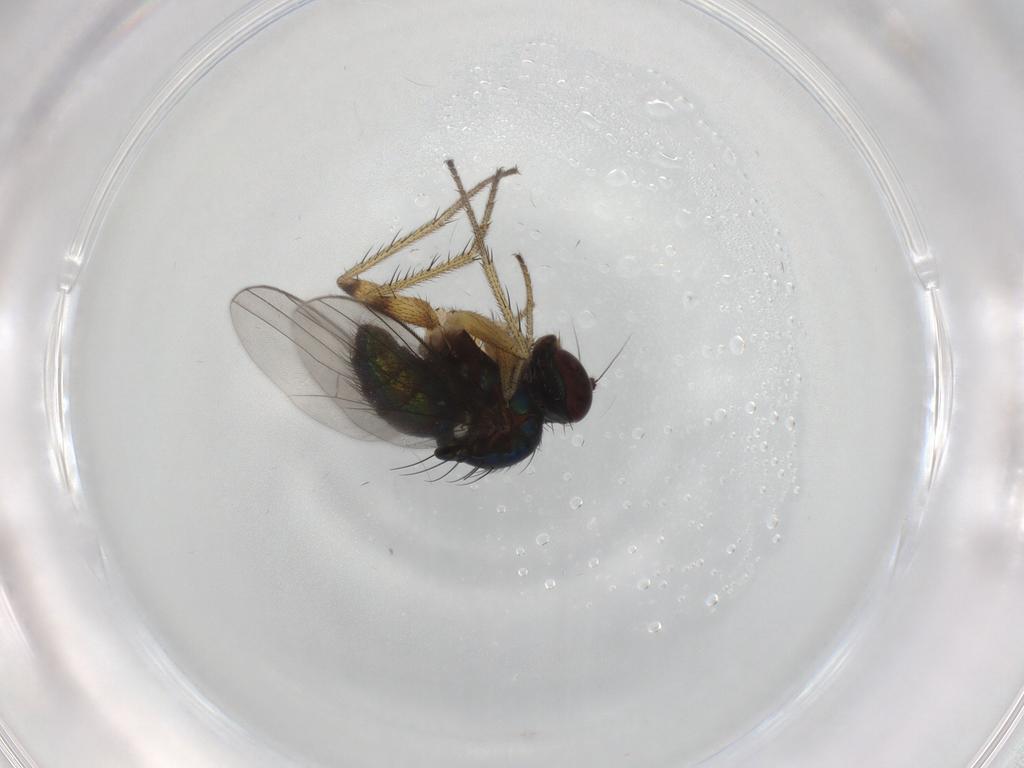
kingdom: Animalia
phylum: Arthropoda
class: Insecta
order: Diptera
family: Dolichopodidae
